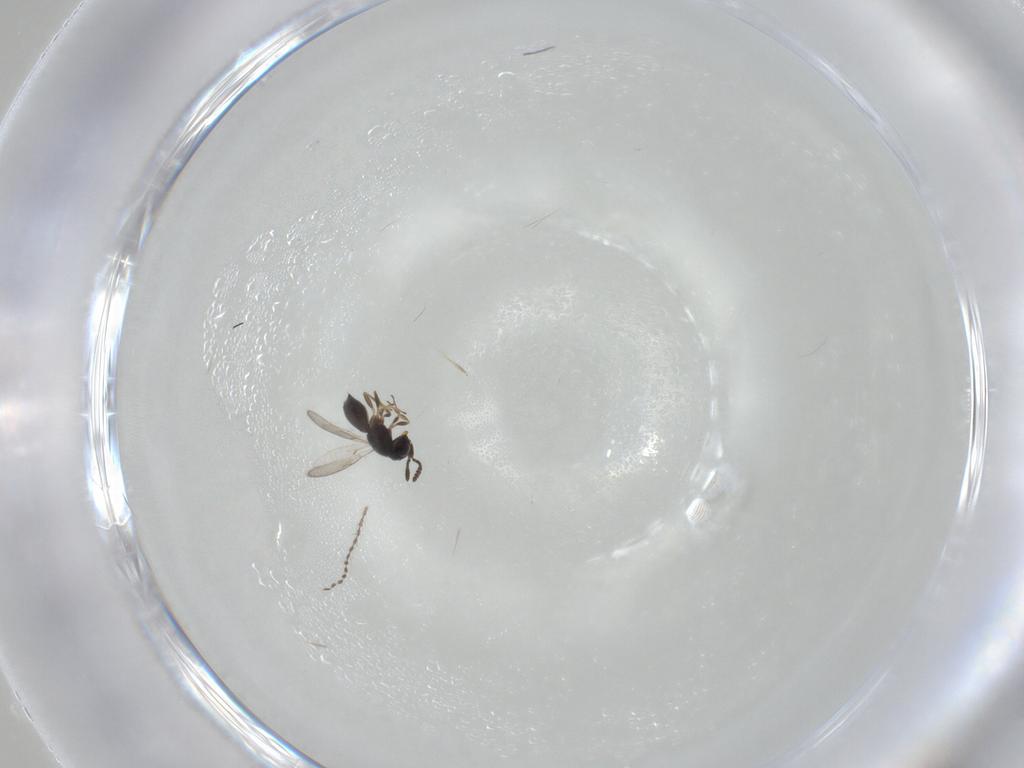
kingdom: Animalia
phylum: Arthropoda
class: Insecta
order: Hymenoptera
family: Scelionidae
